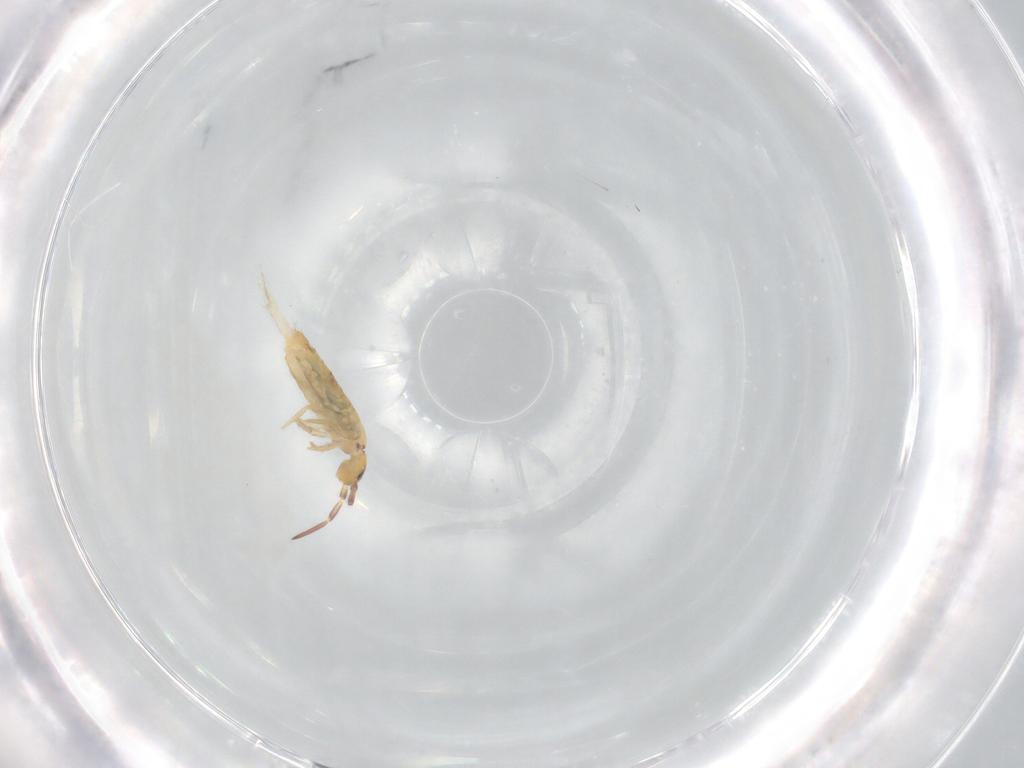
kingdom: Animalia
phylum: Arthropoda
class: Collembola
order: Entomobryomorpha
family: Entomobryidae
